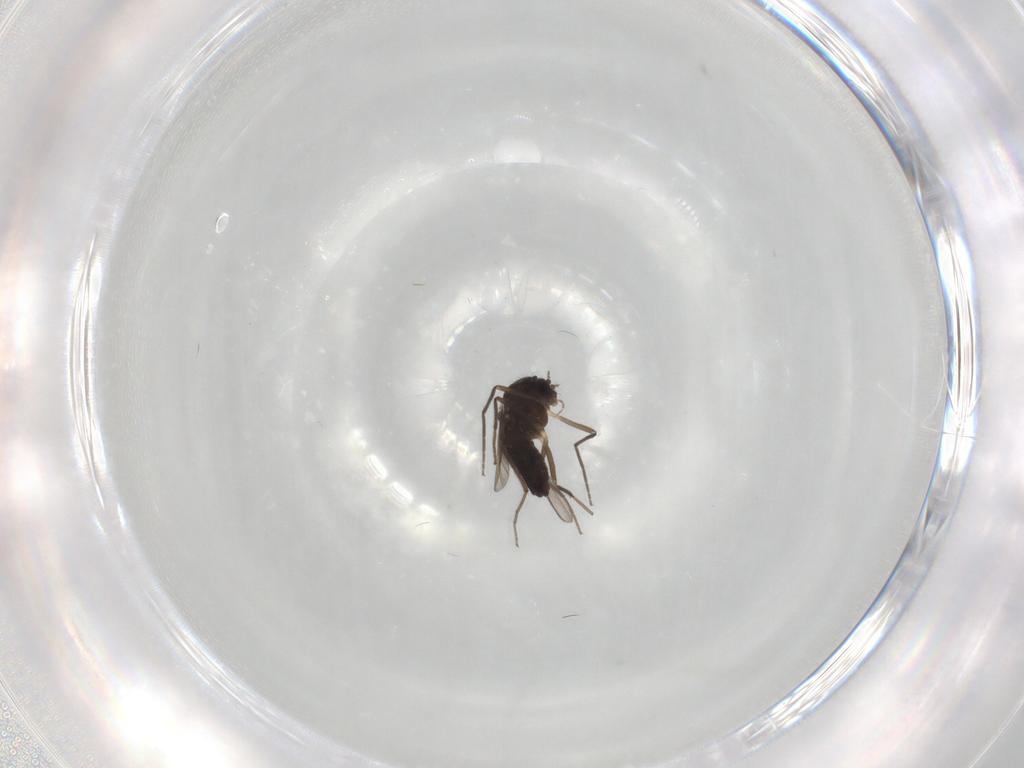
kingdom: Animalia
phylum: Arthropoda
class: Insecta
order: Diptera
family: Chironomidae
